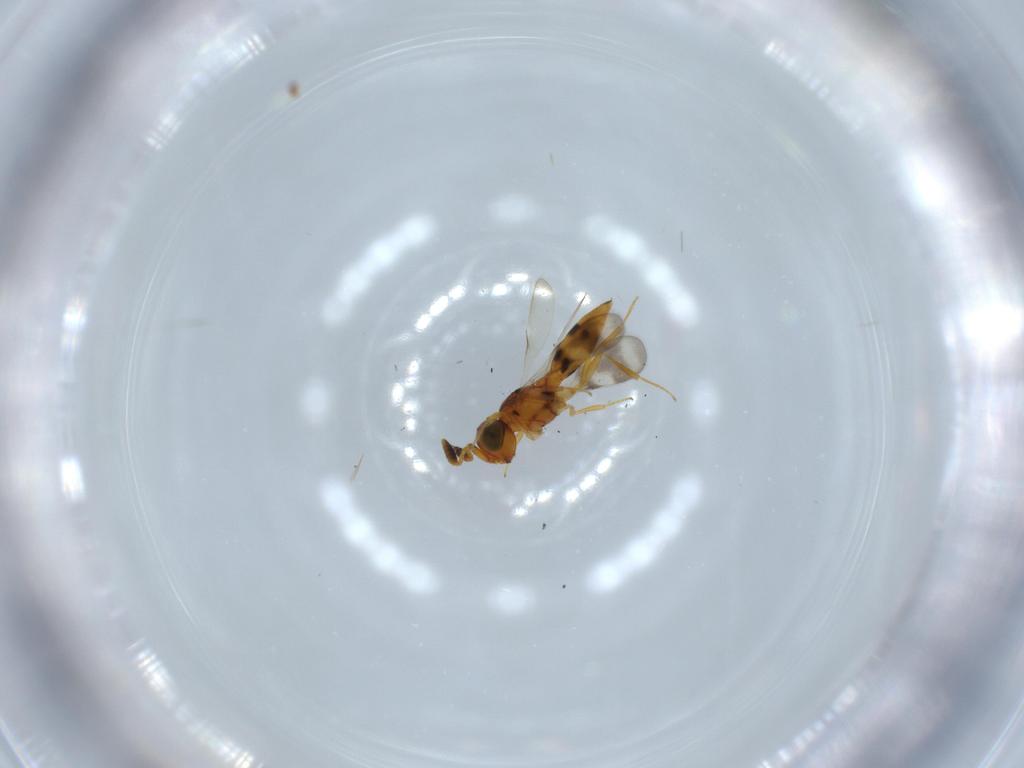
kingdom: Animalia
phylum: Arthropoda
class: Insecta
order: Hymenoptera
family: Scelionidae
